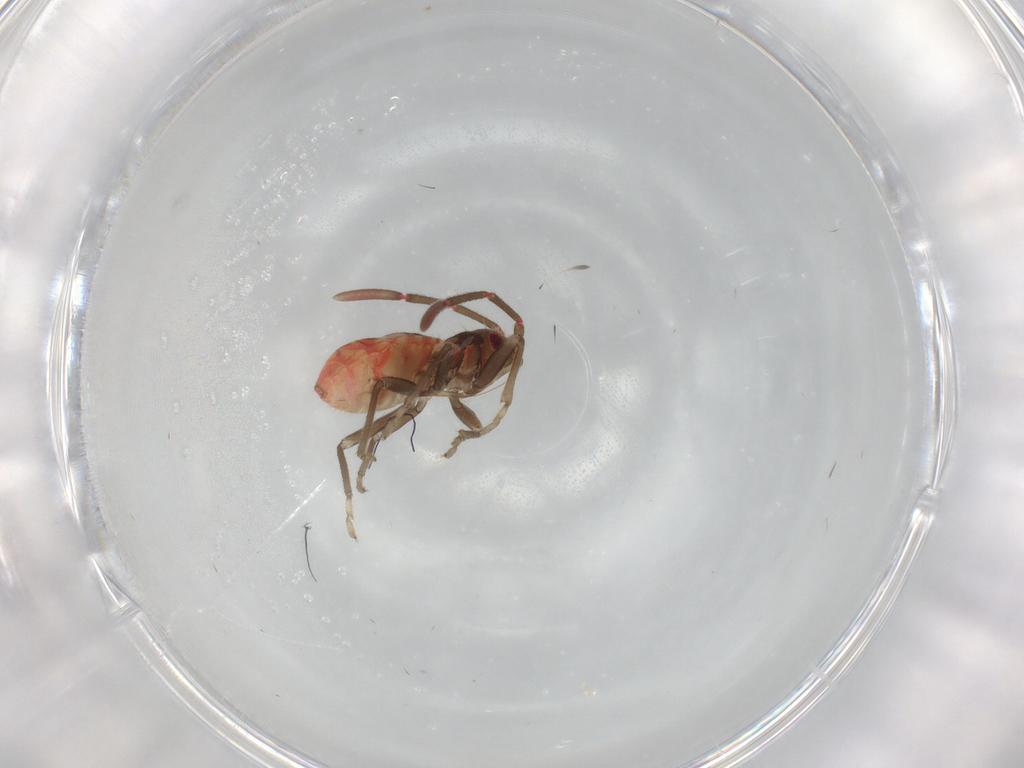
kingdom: Animalia
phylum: Arthropoda
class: Insecta
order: Hemiptera
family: Rhyparochromidae
